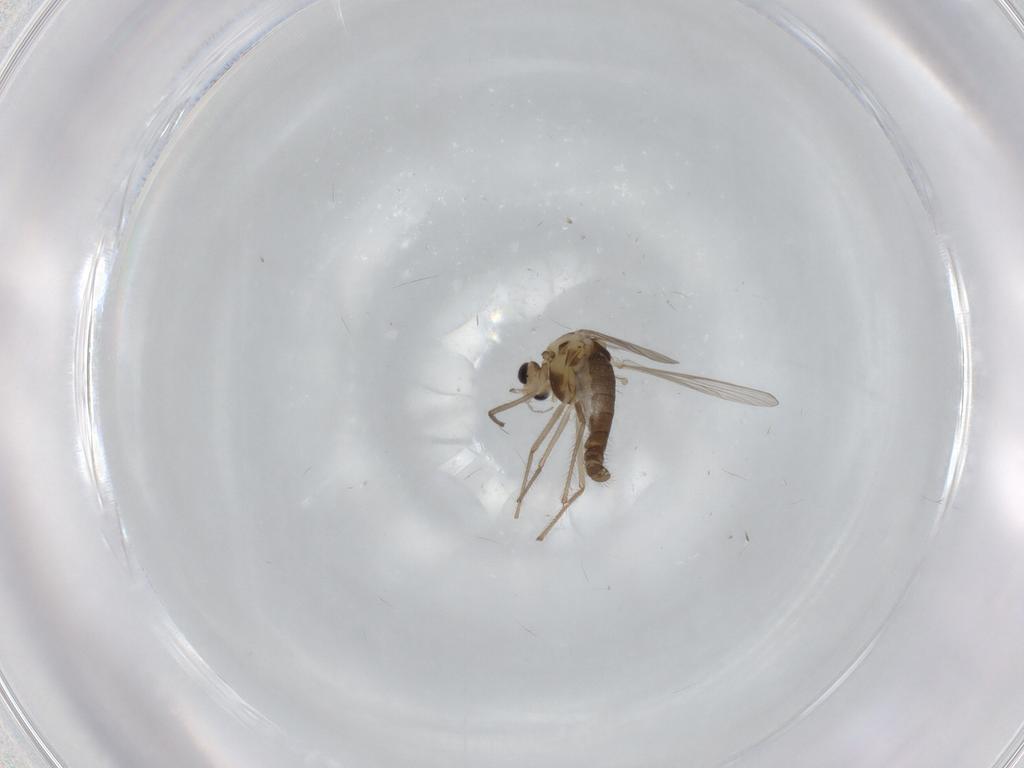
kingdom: Animalia
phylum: Arthropoda
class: Insecta
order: Diptera
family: Chironomidae
